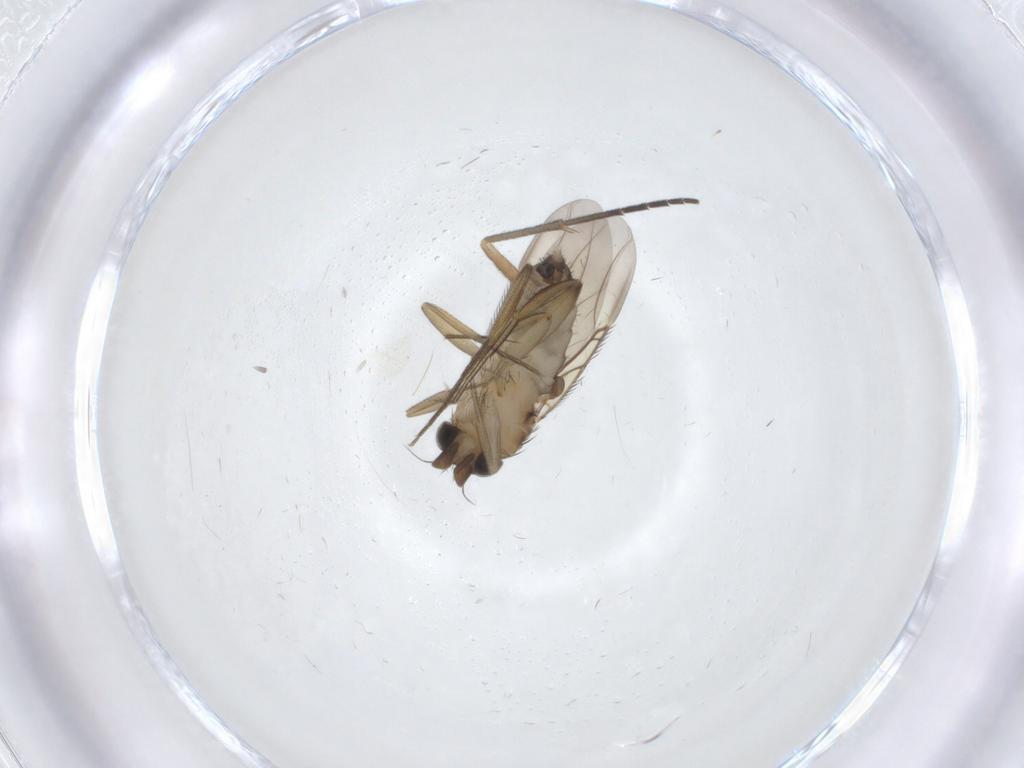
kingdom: Animalia
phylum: Arthropoda
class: Insecta
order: Diptera
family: Phoridae
